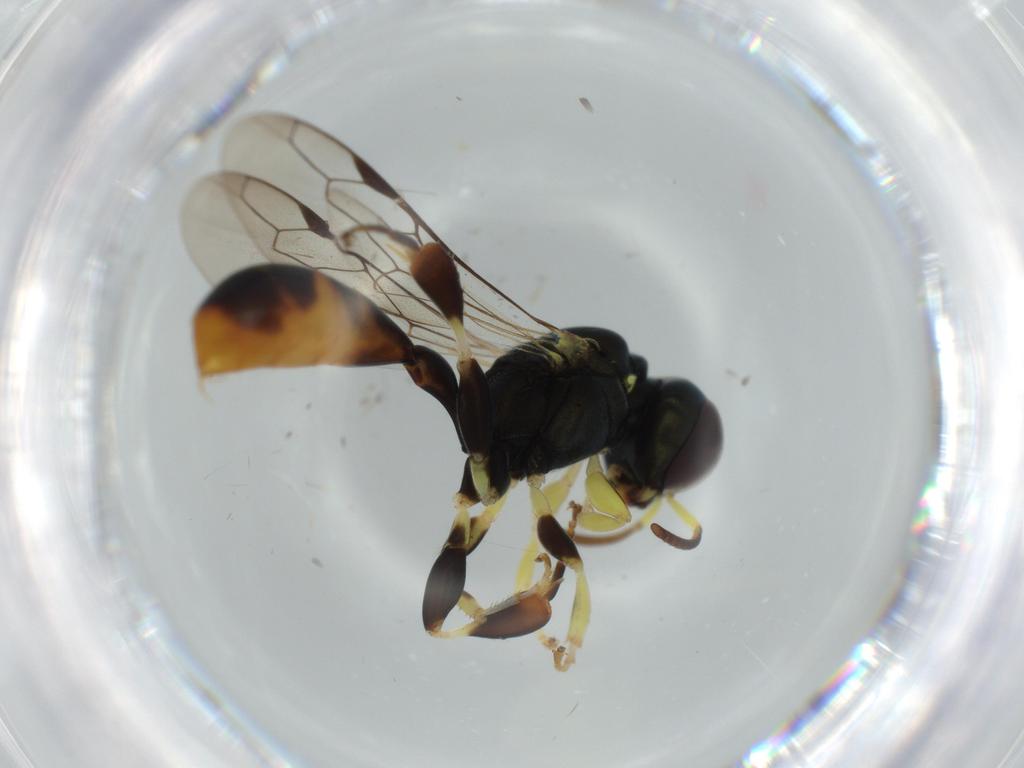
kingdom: Animalia
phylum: Arthropoda
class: Insecta
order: Hymenoptera
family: Crabronidae
